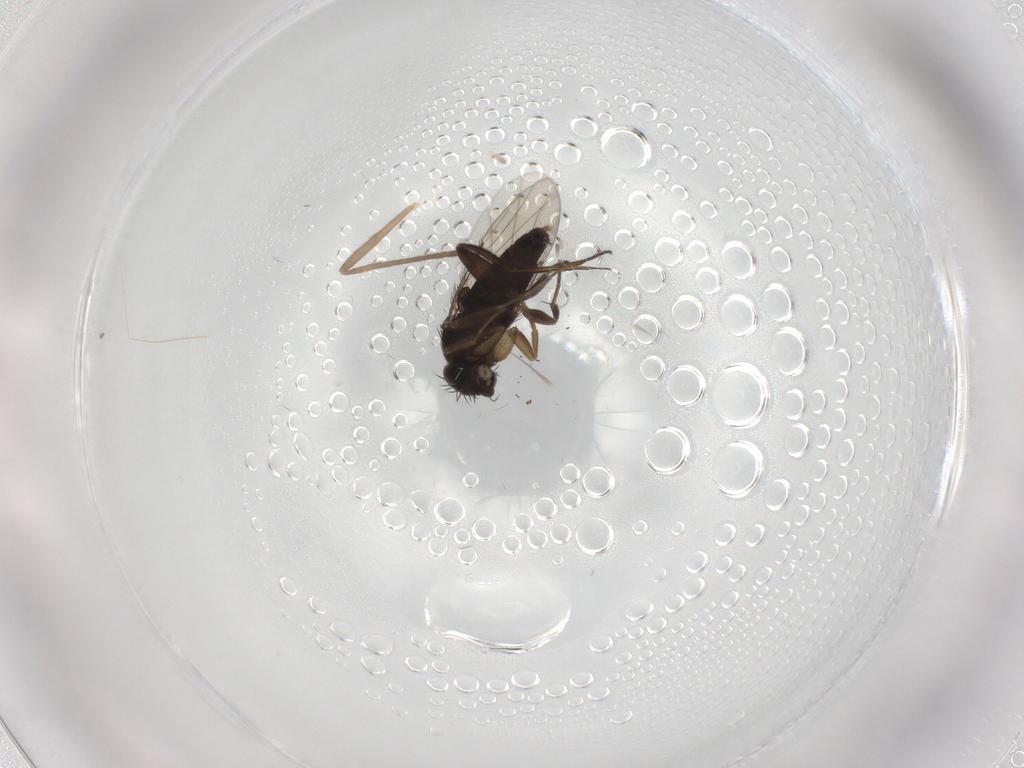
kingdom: Animalia
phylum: Arthropoda
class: Insecta
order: Diptera
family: Phoridae
